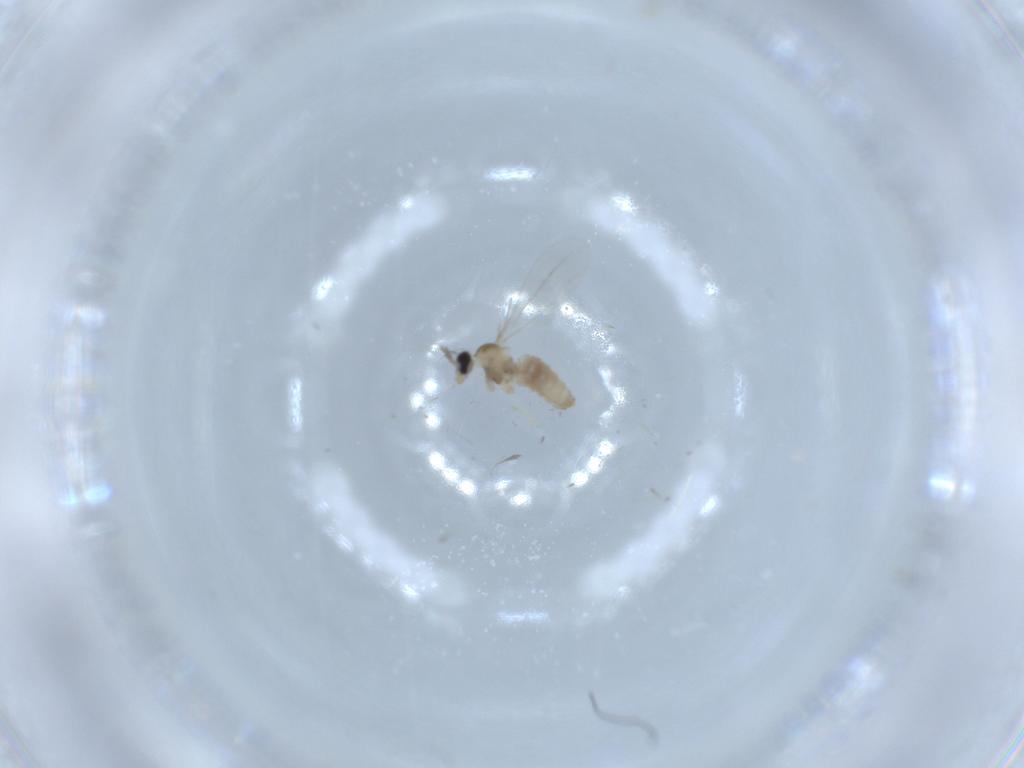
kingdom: Animalia
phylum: Arthropoda
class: Insecta
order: Diptera
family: Cecidomyiidae
